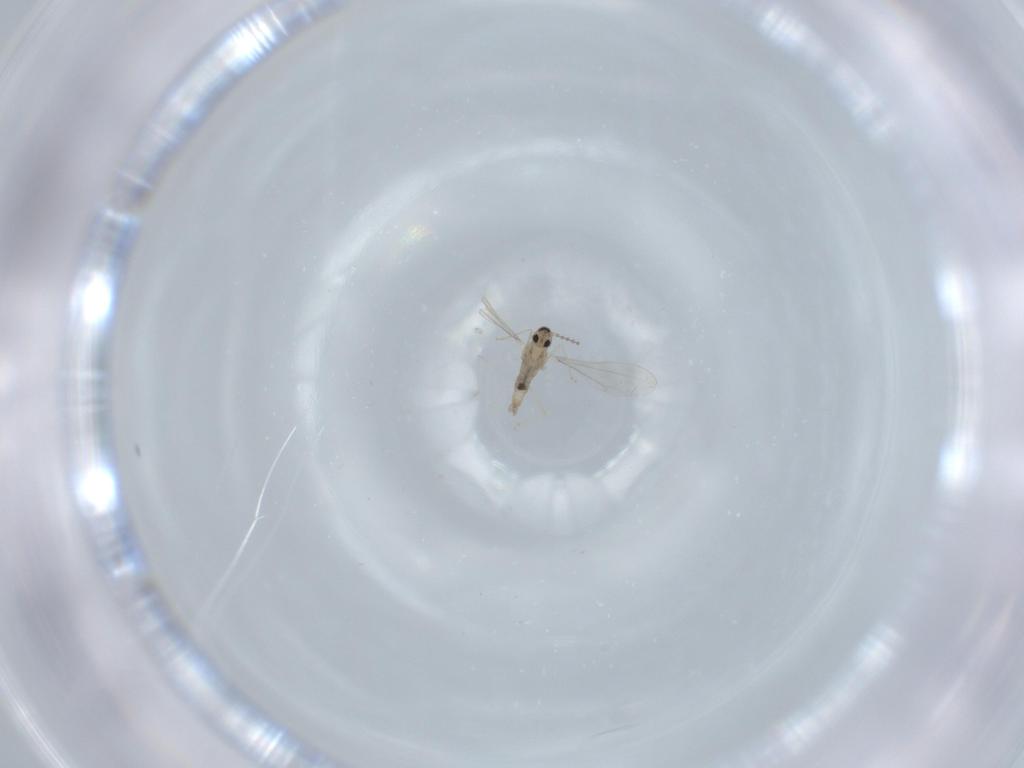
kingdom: Animalia
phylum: Arthropoda
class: Insecta
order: Diptera
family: Cecidomyiidae
